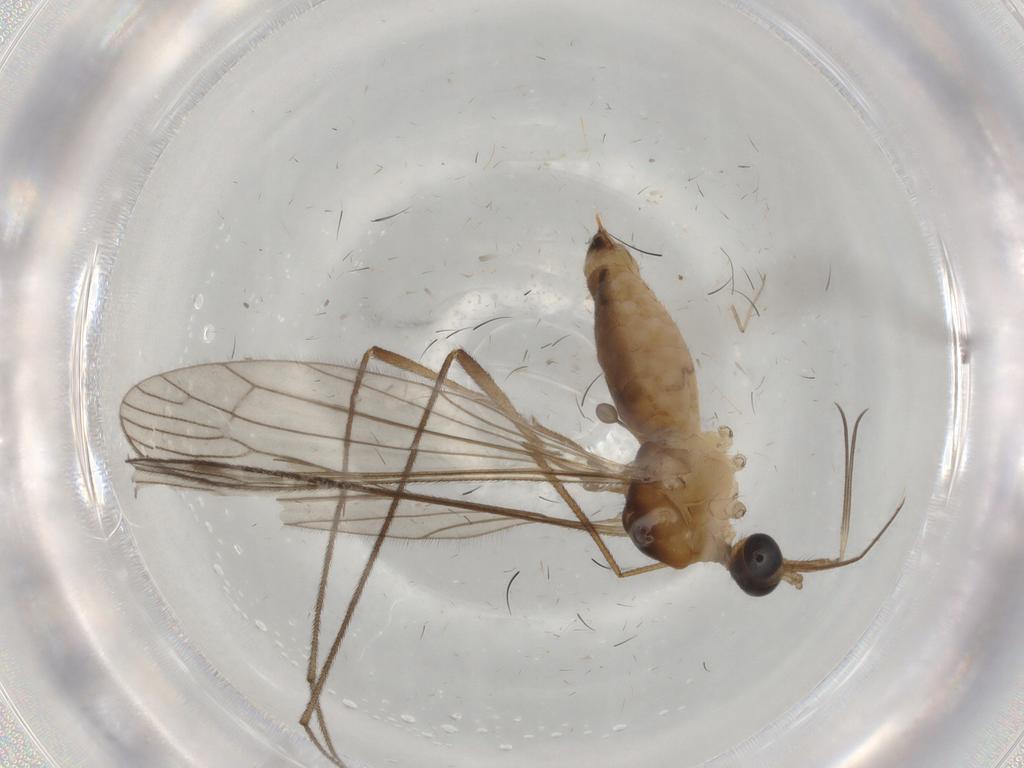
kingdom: Animalia
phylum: Arthropoda
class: Insecta
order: Diptera
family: Limoniidae
